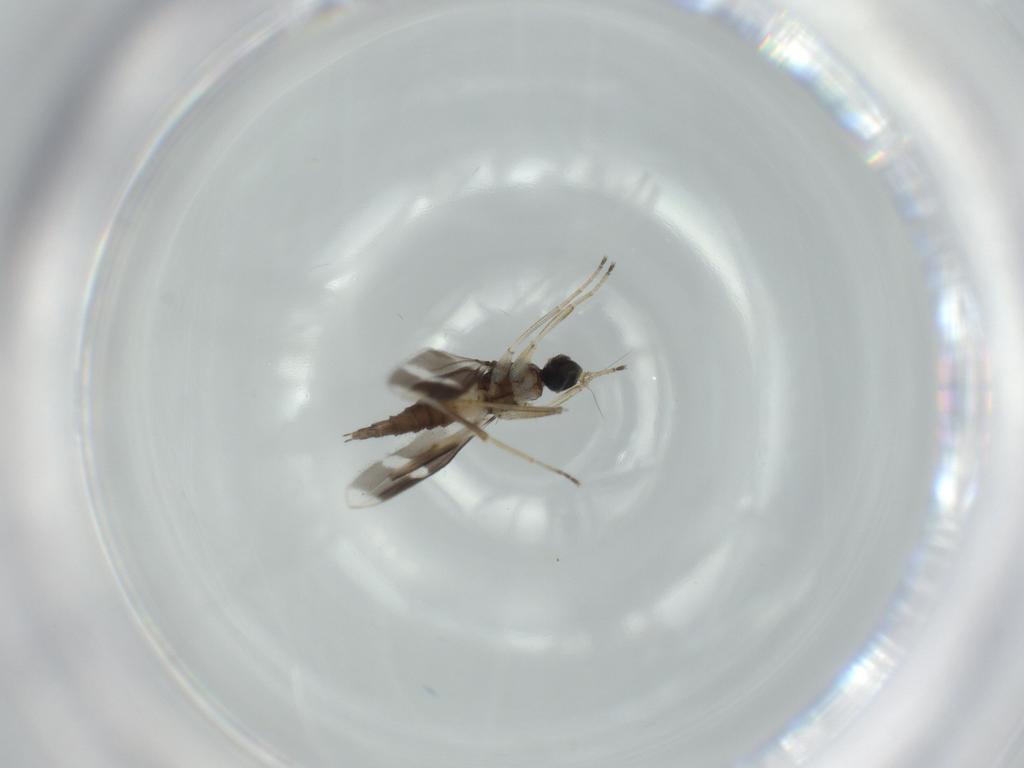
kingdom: Animalia
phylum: Arthropoda
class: Insecta
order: Diptera
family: Hybotidae
